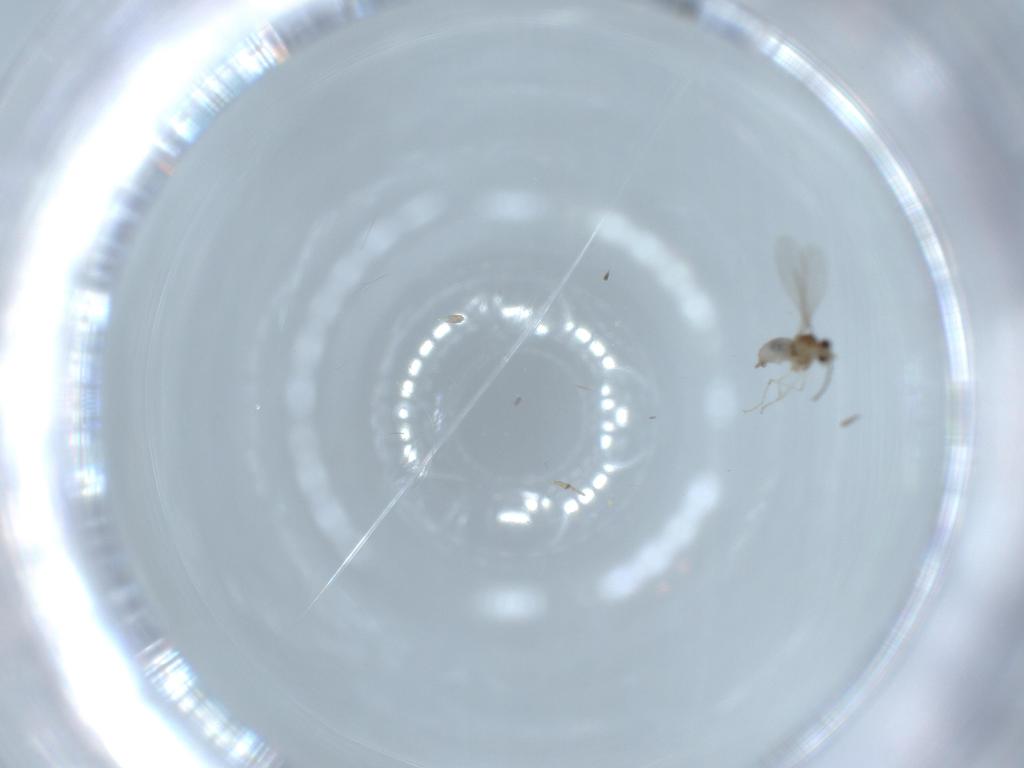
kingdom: Animalia
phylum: Arthropoda
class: Insecta
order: Diptera
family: Cecidomyiidae
